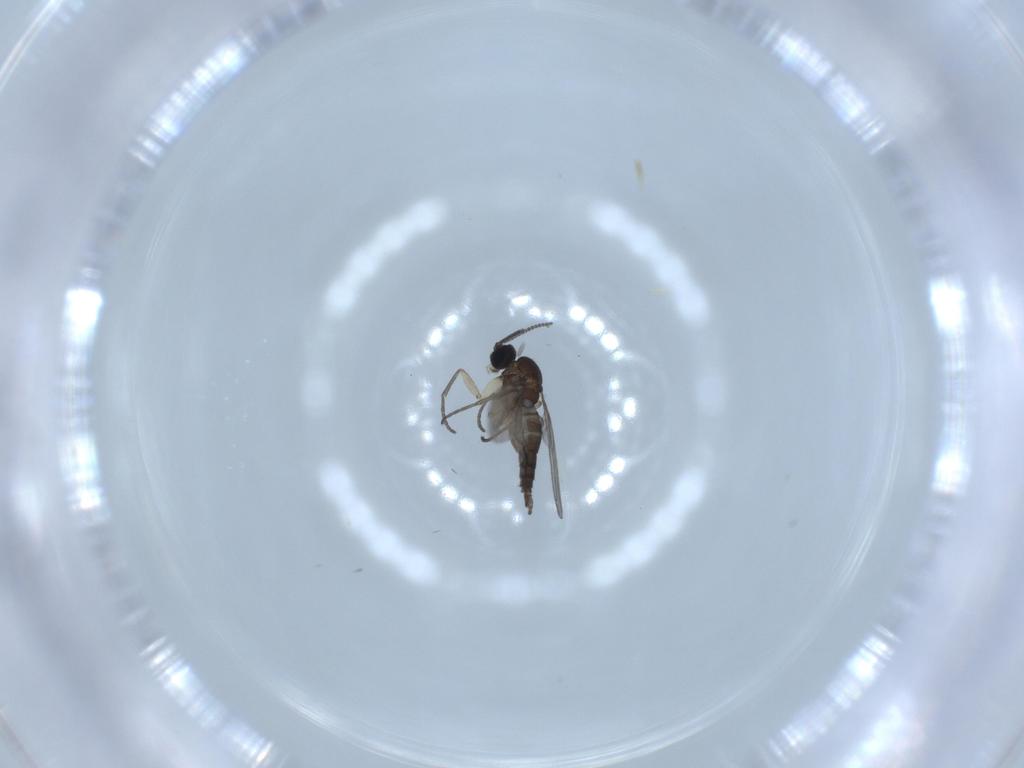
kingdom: Animalia
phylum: Arthropoda
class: Insecta
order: Diptera
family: Sciaridae
